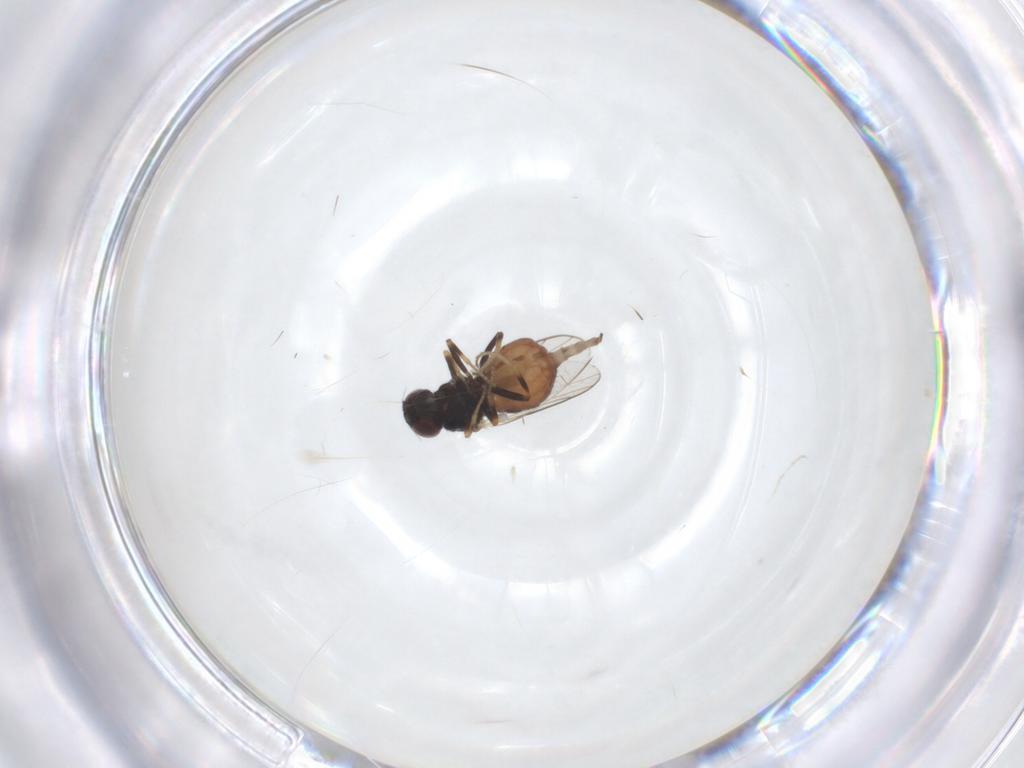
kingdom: Animalia
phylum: Arthropoda
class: Insecta
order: Diptera
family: Chloropidae
